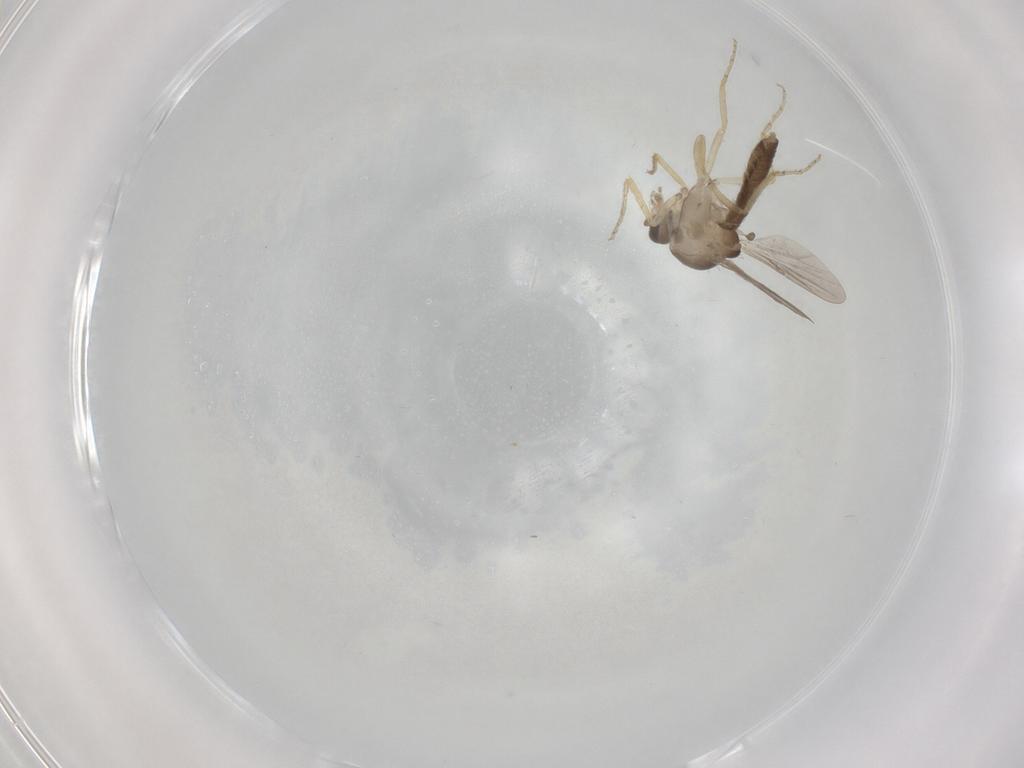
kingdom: Animalia
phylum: Arthropoda
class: Insecta
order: Diptera
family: Ceratopogonidae
